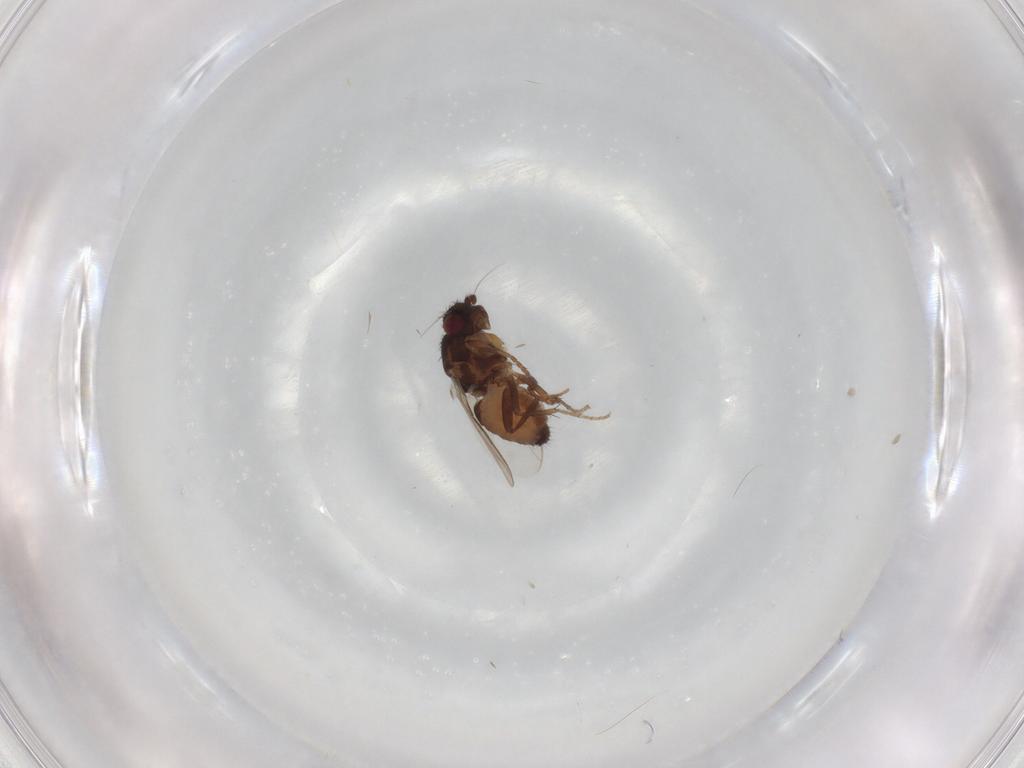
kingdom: Animalia
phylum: Arthropoda
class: Insecta
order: Diptera
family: Sphaeroceridae
